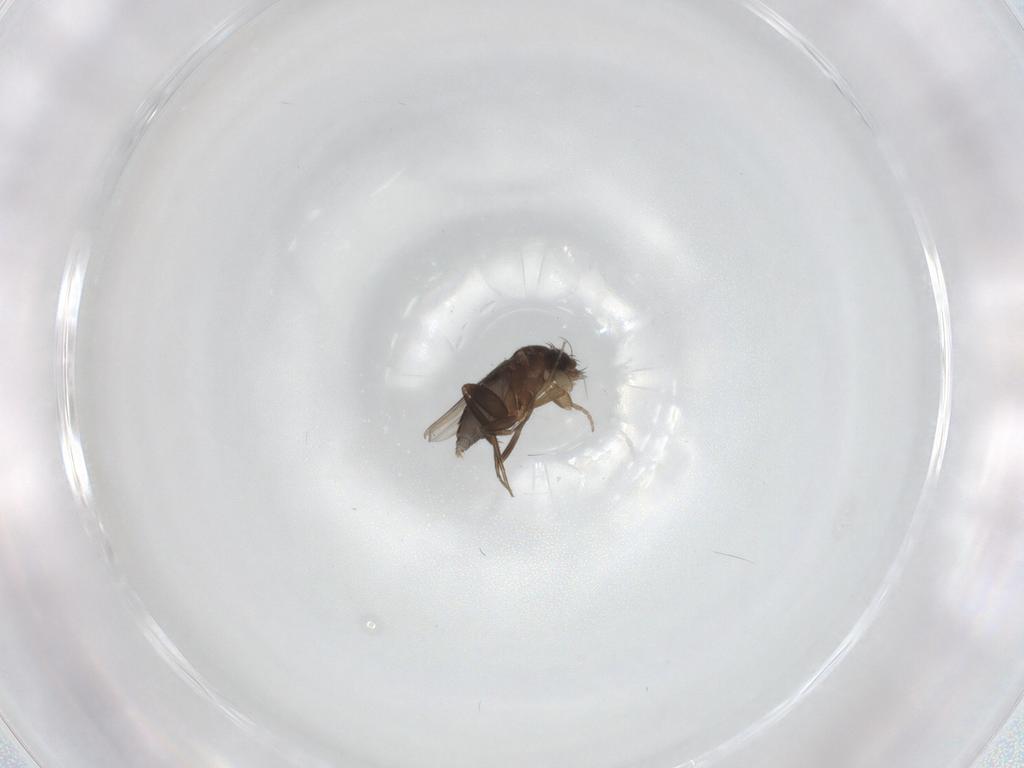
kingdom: Animalia
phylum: Arthropoda
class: Insecta
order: Diptera
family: Phoridae
